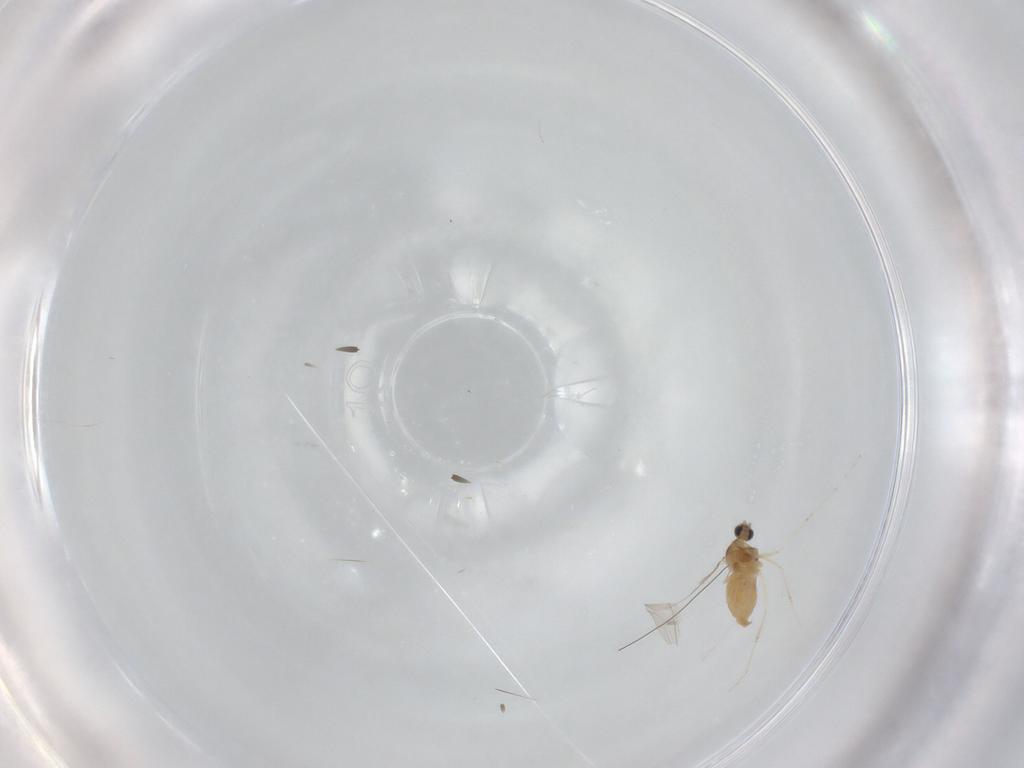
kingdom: Animalia
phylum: Arthropoda
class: Insecta
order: Diptera
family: Cecidomyiidae
